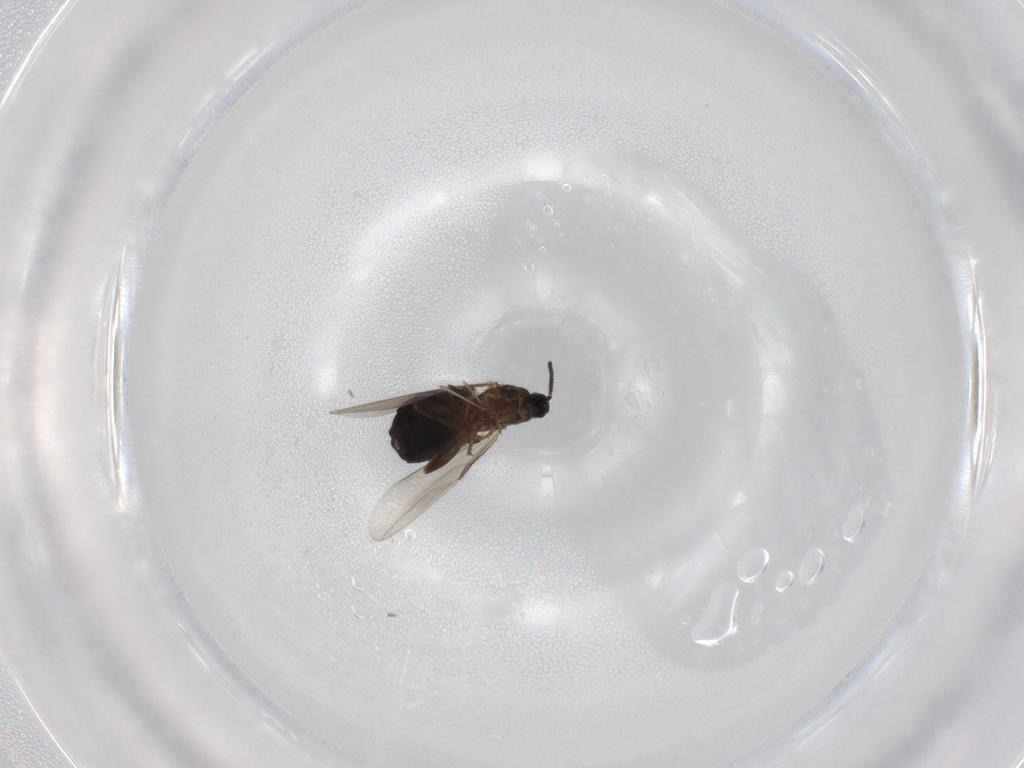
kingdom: Animalia
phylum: Arthropoda
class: Insecta
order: Diptera
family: Scatopsidae
